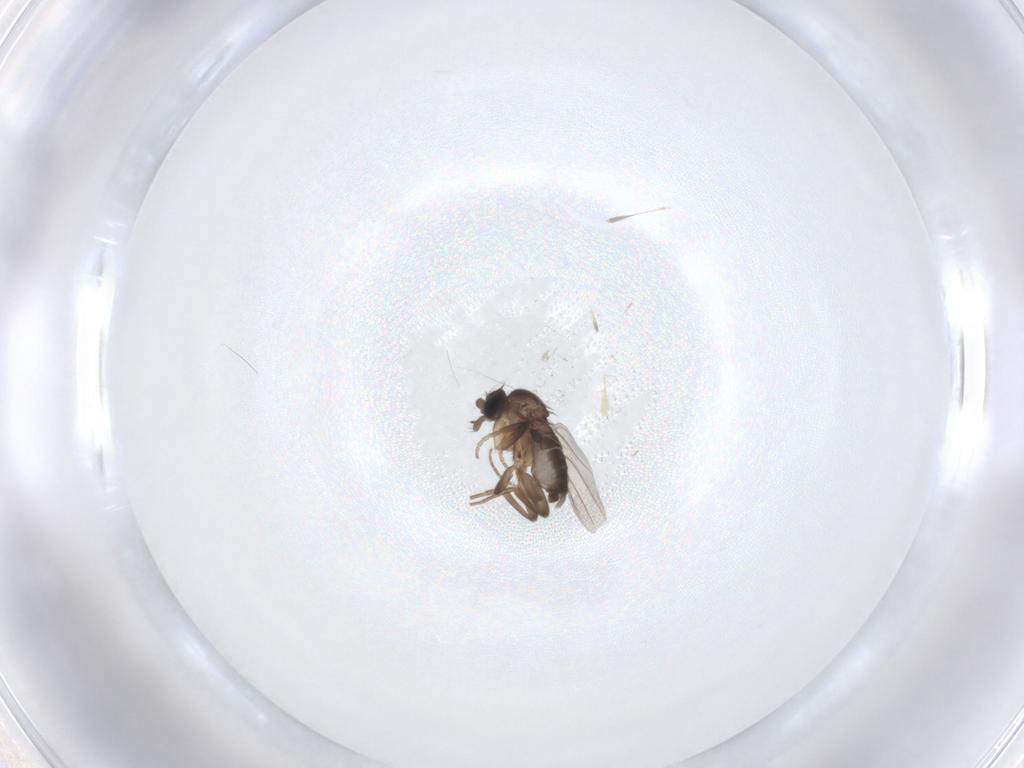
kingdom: Animalia
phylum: Arthropoda
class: Insecta
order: Diptera
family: Phoridae
